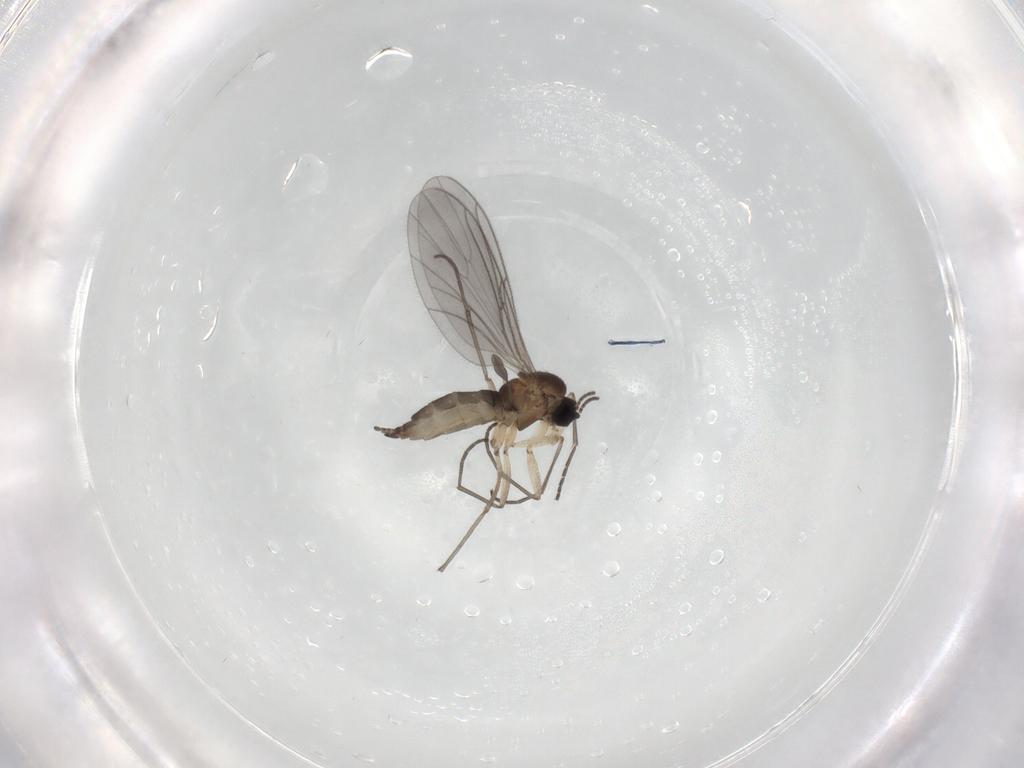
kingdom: Animalia
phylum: Arthropoda
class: Insecta
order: Diptera
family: Sciaridae
